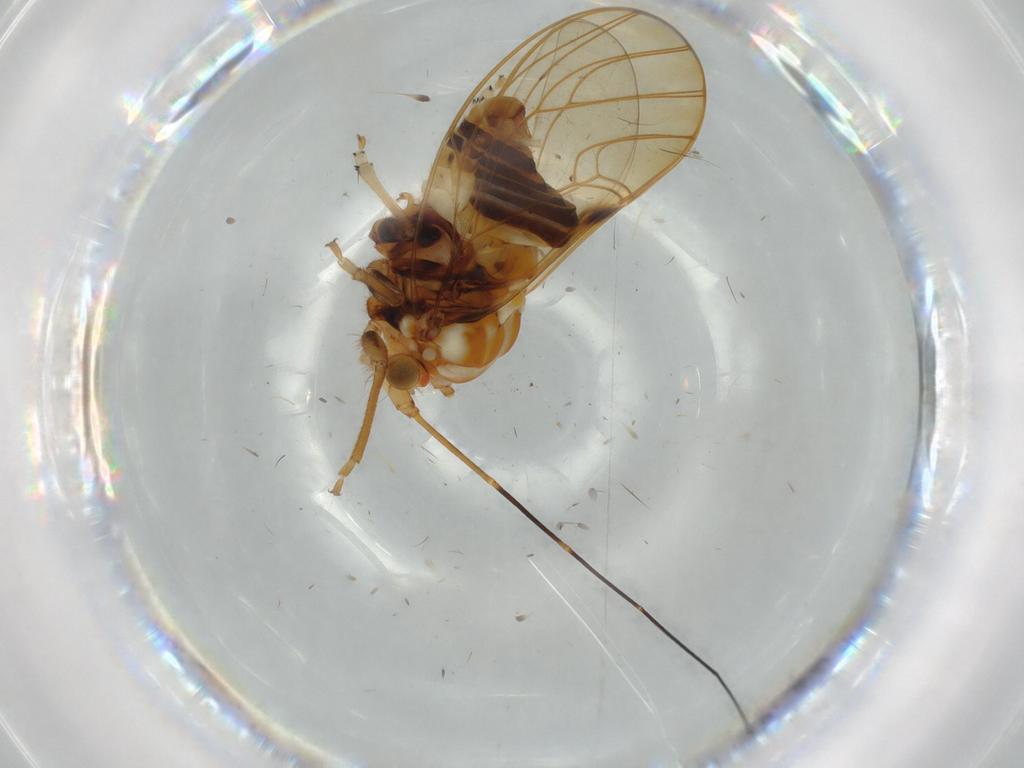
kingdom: Animalia
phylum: Arthropoda
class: Insecta
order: Hemiptera
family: Psyllidae
